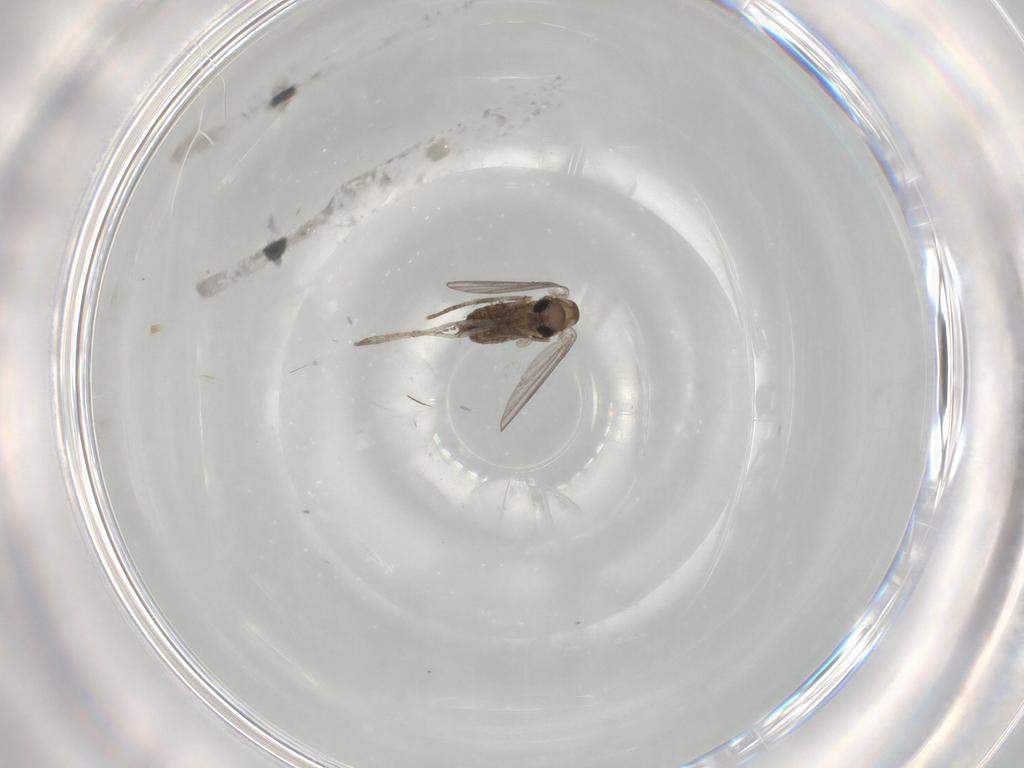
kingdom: Animalia
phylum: Arthropoda
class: Insecta
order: Diptera
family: Cecidomyiidae
